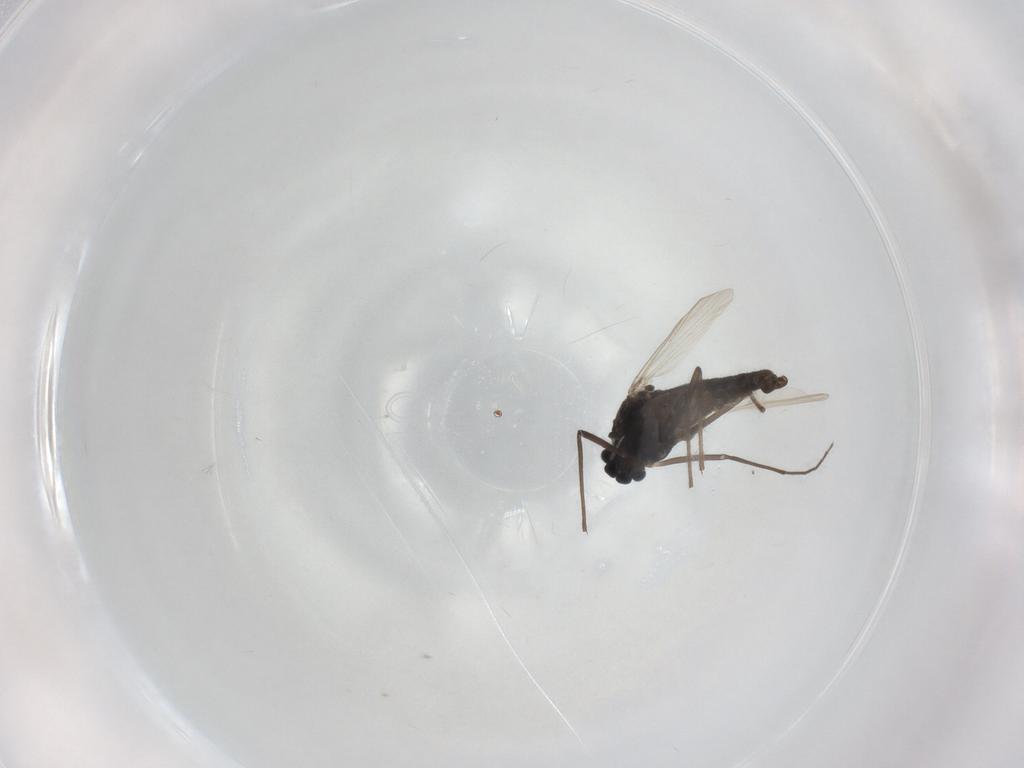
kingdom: Animalia
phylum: Arthropoda
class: Insecta
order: Diptera
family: Chironomidae
